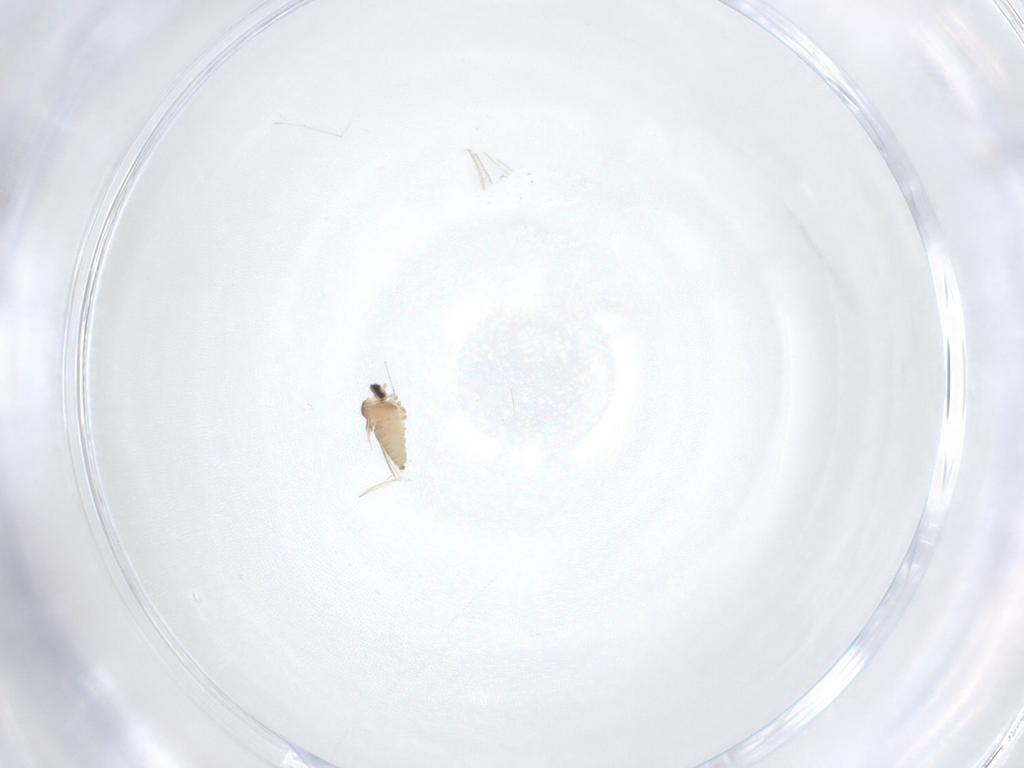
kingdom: Animalia
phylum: Arthropoda
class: Insecta
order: Diptera
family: Cecidomyiidae
